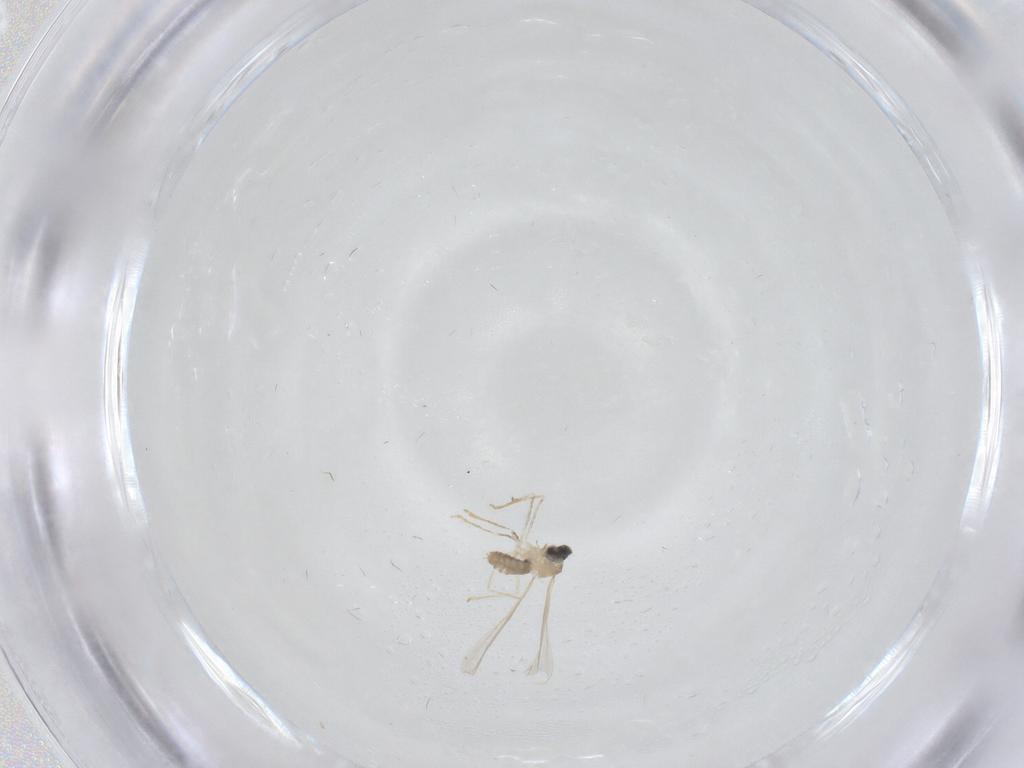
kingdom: Animalia
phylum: Arthropoda
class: Insecta
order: Diptera
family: Cecidomyiidae
